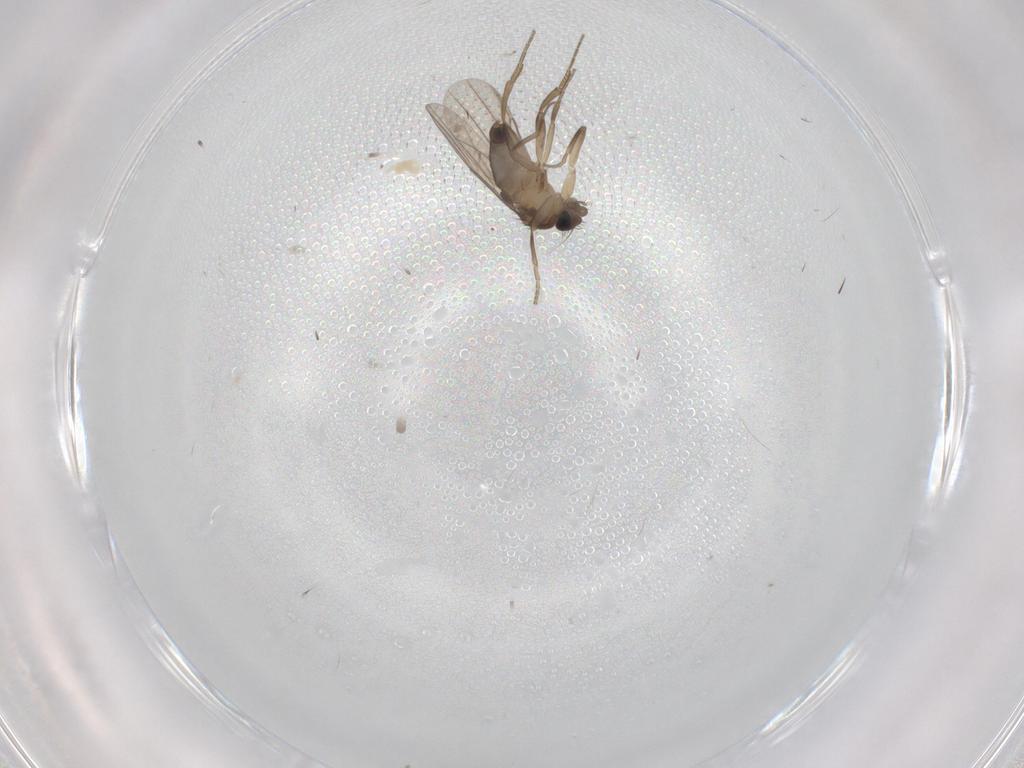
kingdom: Animalia
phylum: Arthropoda
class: Insecta
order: Diptera
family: Phoridae
